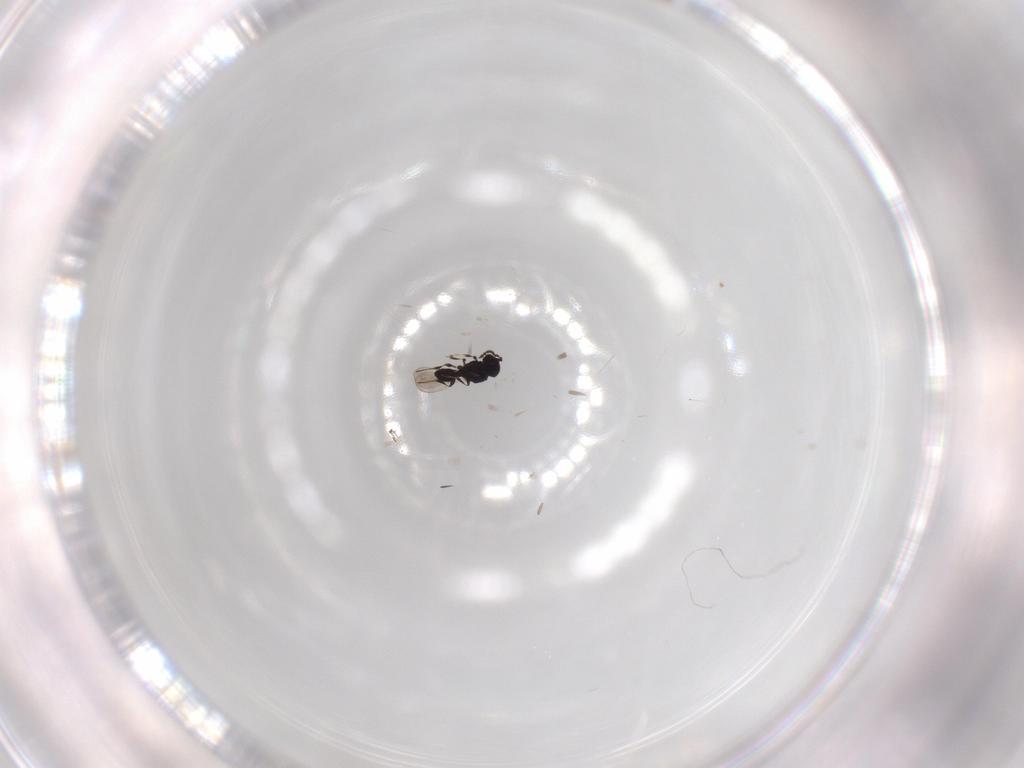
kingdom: Animalia
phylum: Arthropoda
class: Insecta
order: Hymenoptera
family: Platygastridae
